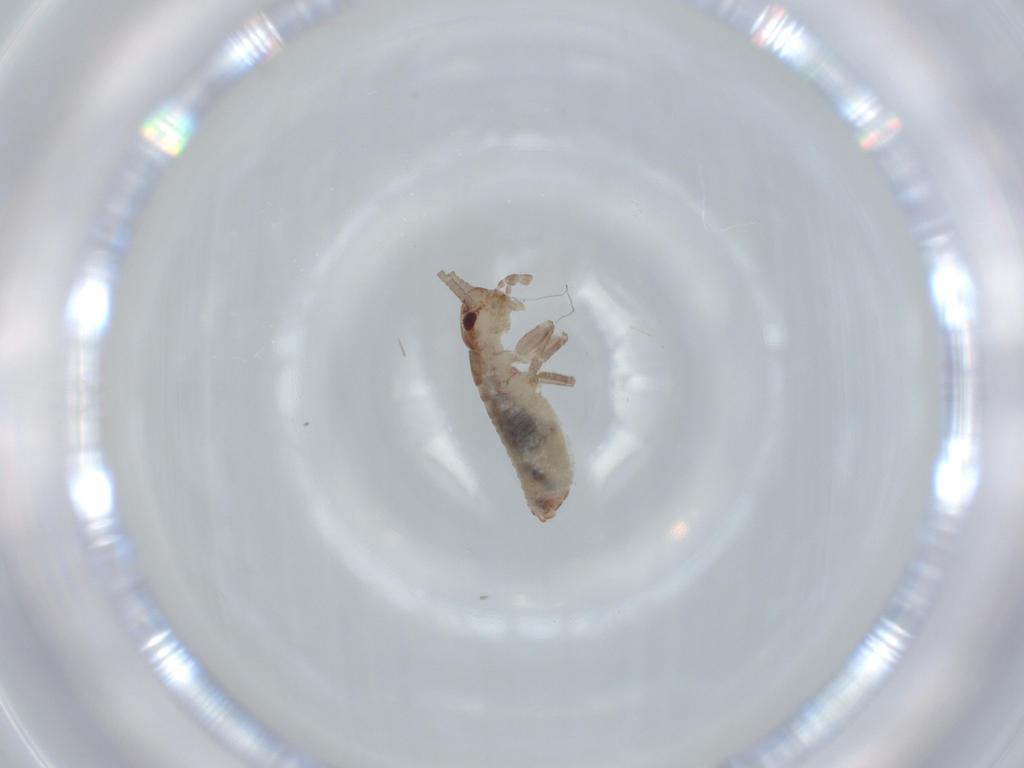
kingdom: Animalia
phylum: Arthropoda
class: Insecta
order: Orthoptera
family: Mogoplistidae
